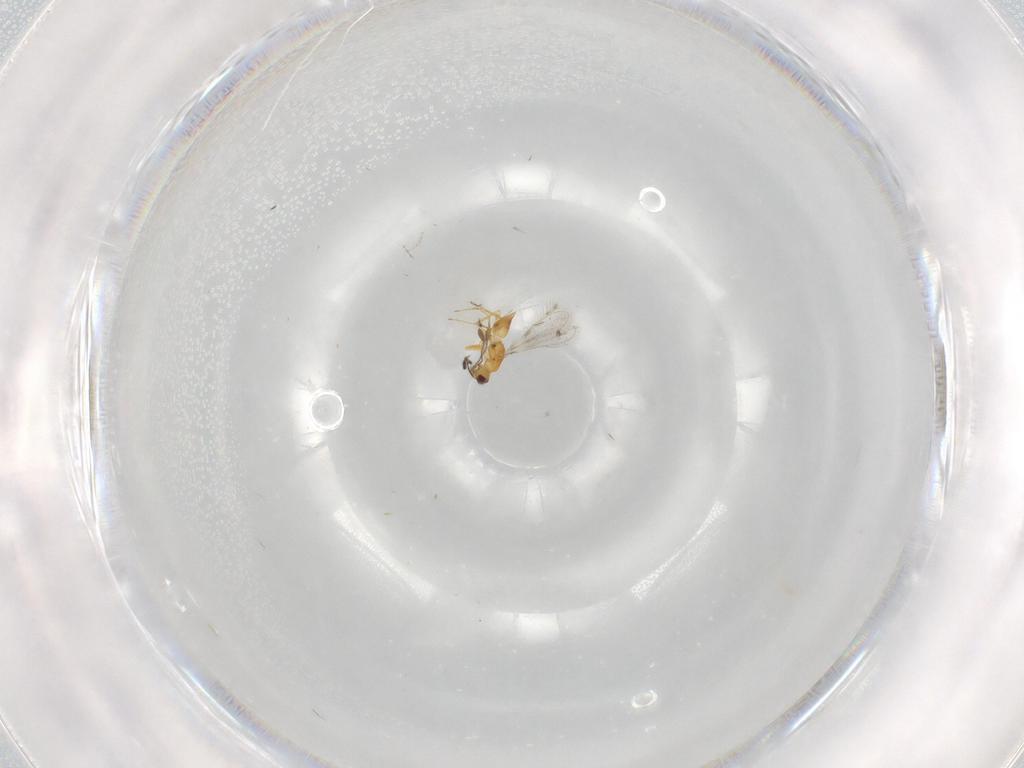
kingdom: Animalia
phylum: Arthropoda
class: Insecta
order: Hymenoptera
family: Mymaridae
